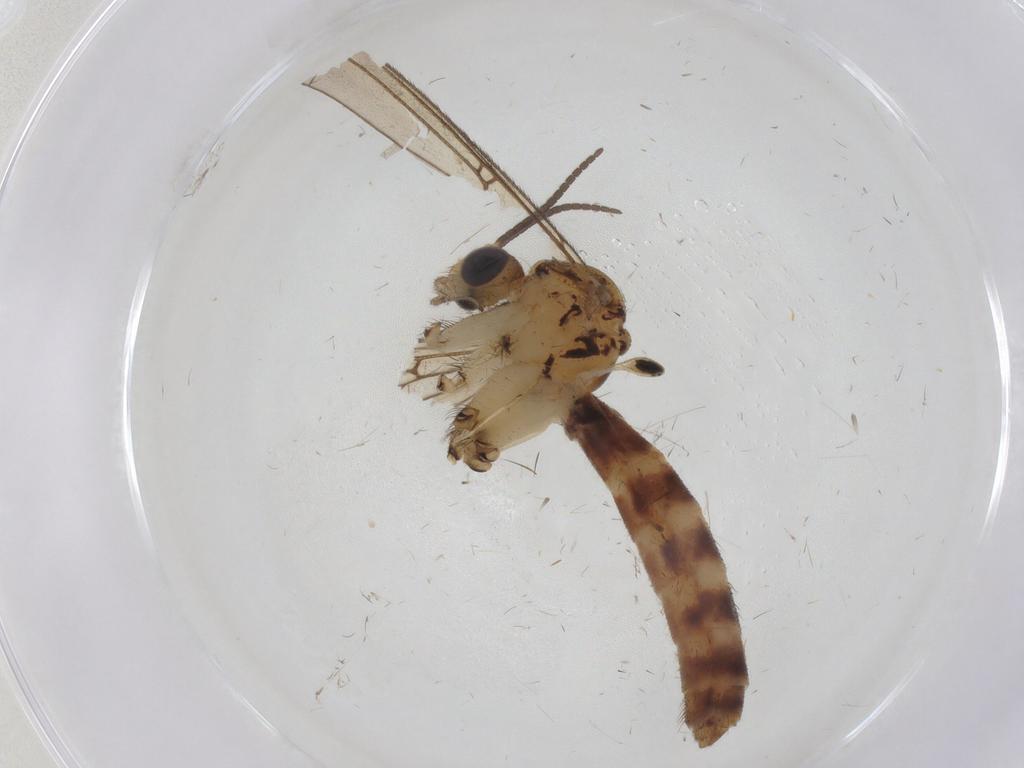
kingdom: Animalia
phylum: Arthropoda
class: Insecta
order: Diptera
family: Mycetophilidae
